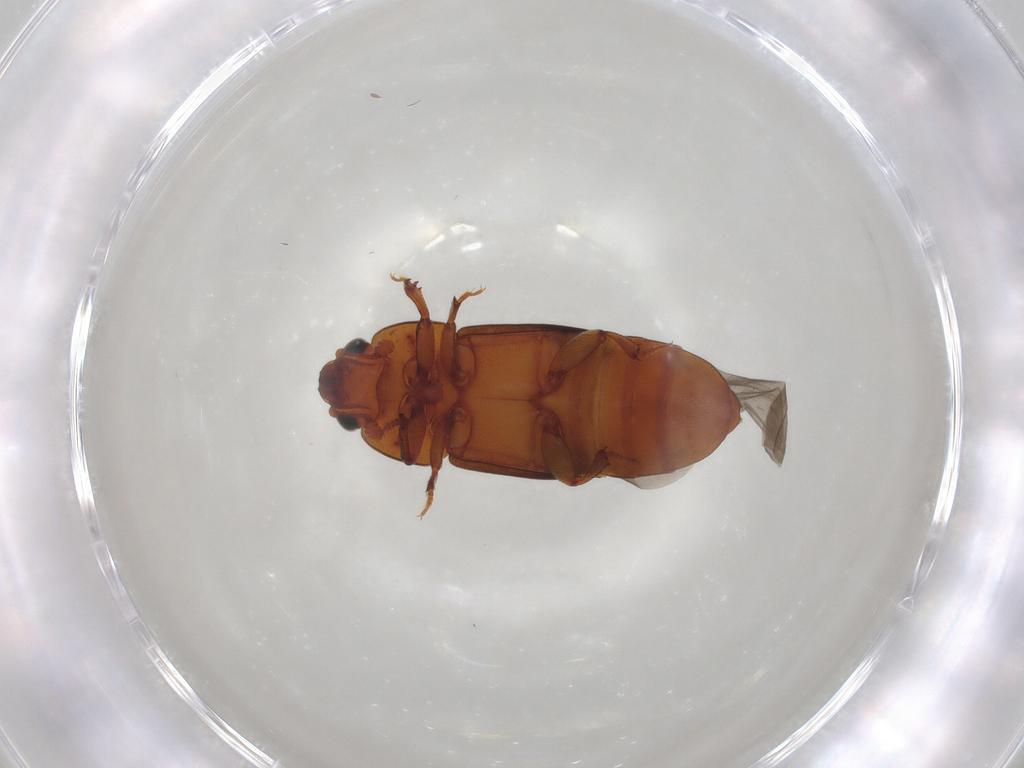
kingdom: Animalia
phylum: Arthropoda
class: Insecta
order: Coleoptera
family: Nitidulidae
